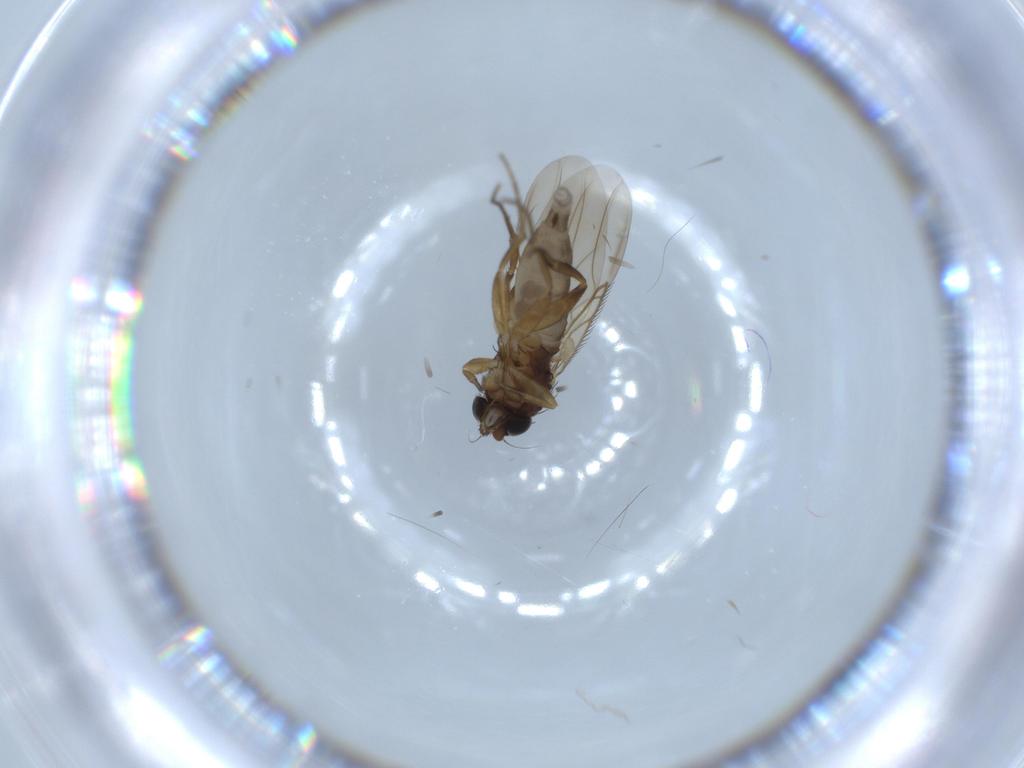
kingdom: Animalia
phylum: Arthropoda
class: Insecta
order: Diptera
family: Phoridae
